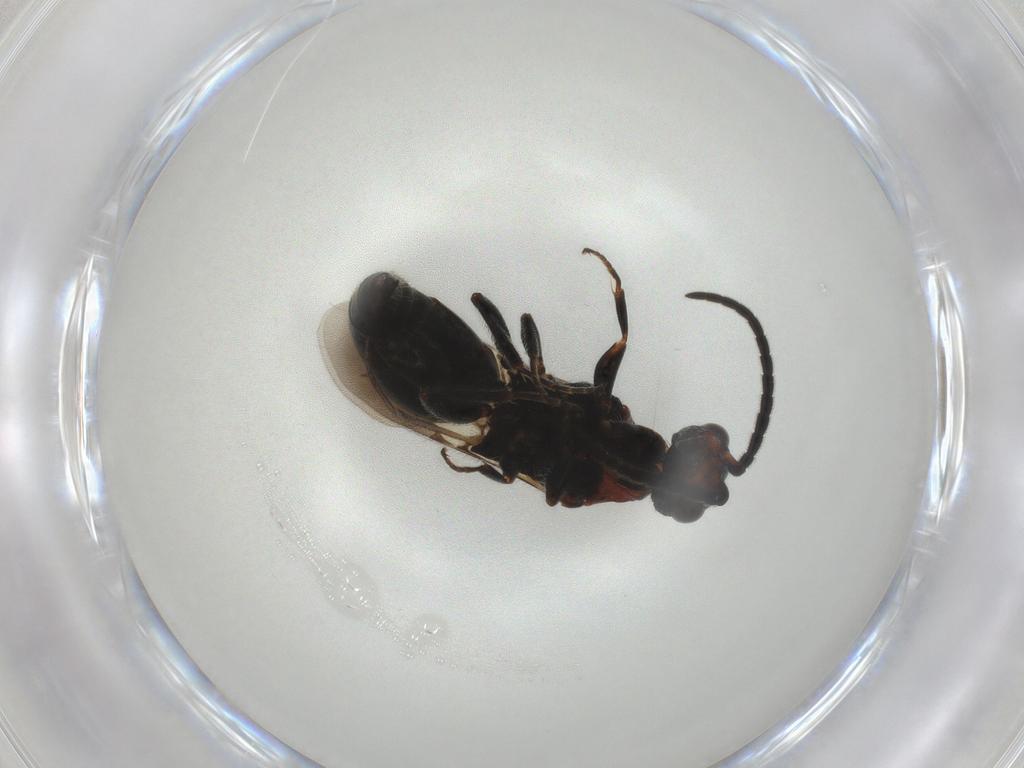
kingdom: Animalia
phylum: Arthropoda
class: Insecta
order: Hymenoptera
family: Bethylidae
